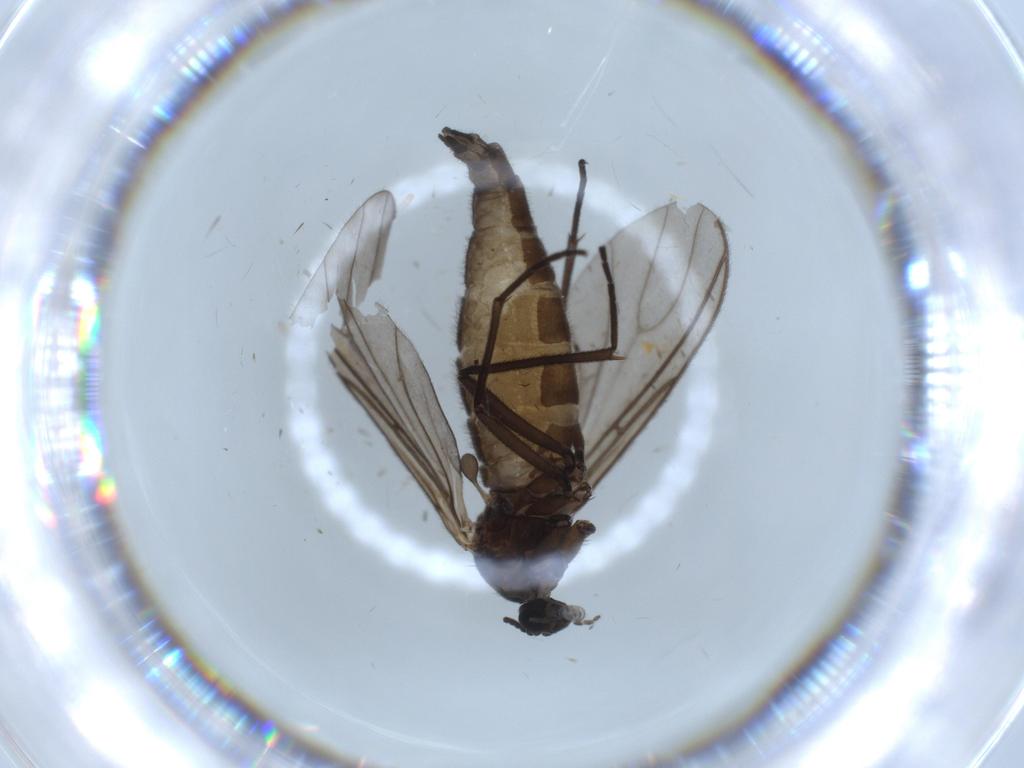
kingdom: Animalia
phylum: Arthropoda
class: Insecta
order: Diptera
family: Sciaridae
